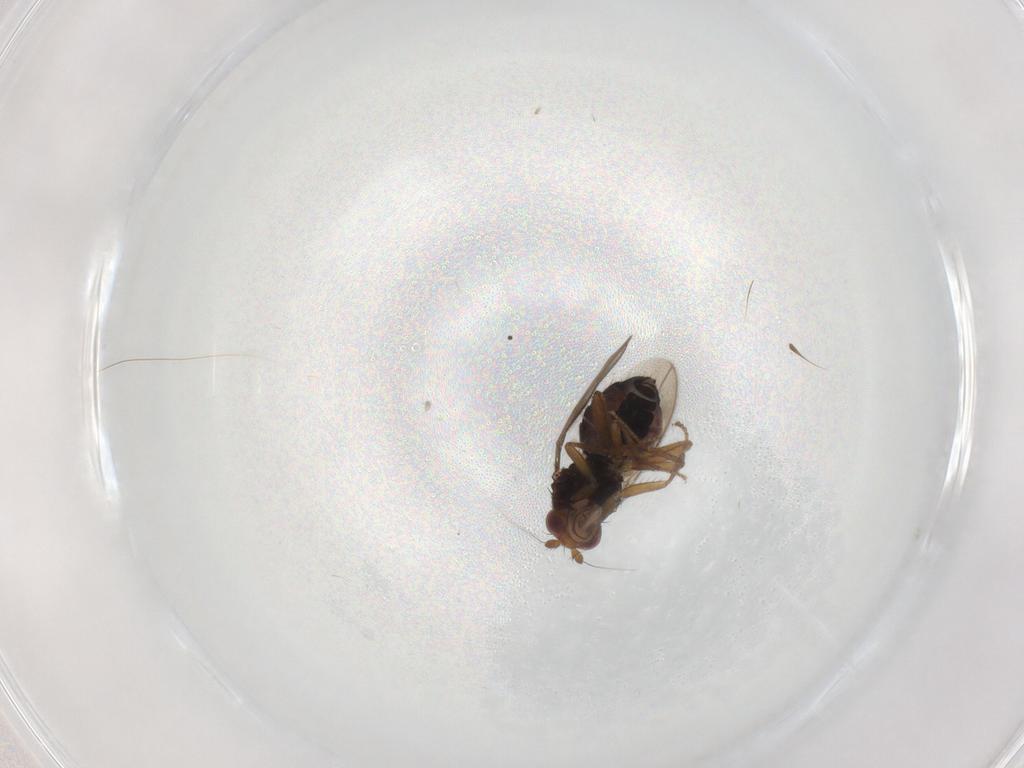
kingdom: Animalia
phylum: Arthropoda
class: Insecta
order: Diptera
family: Sphaeroceridae
